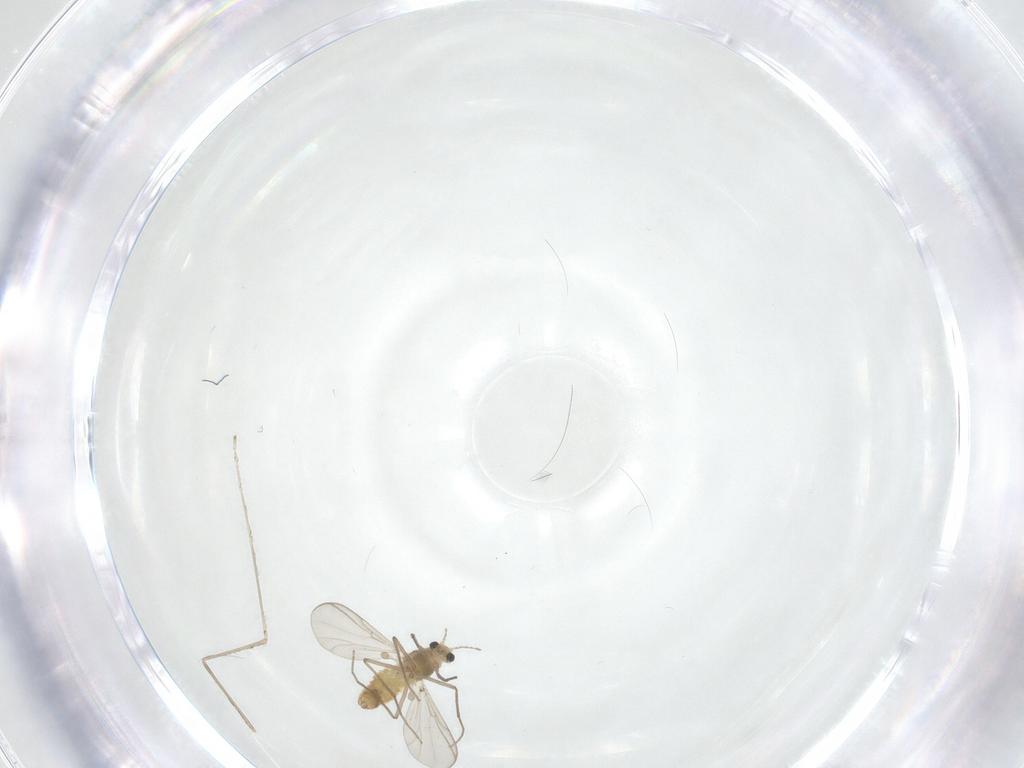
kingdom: Animalia
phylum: Arthropoda
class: Insecta
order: Diptera
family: Chironomidae
